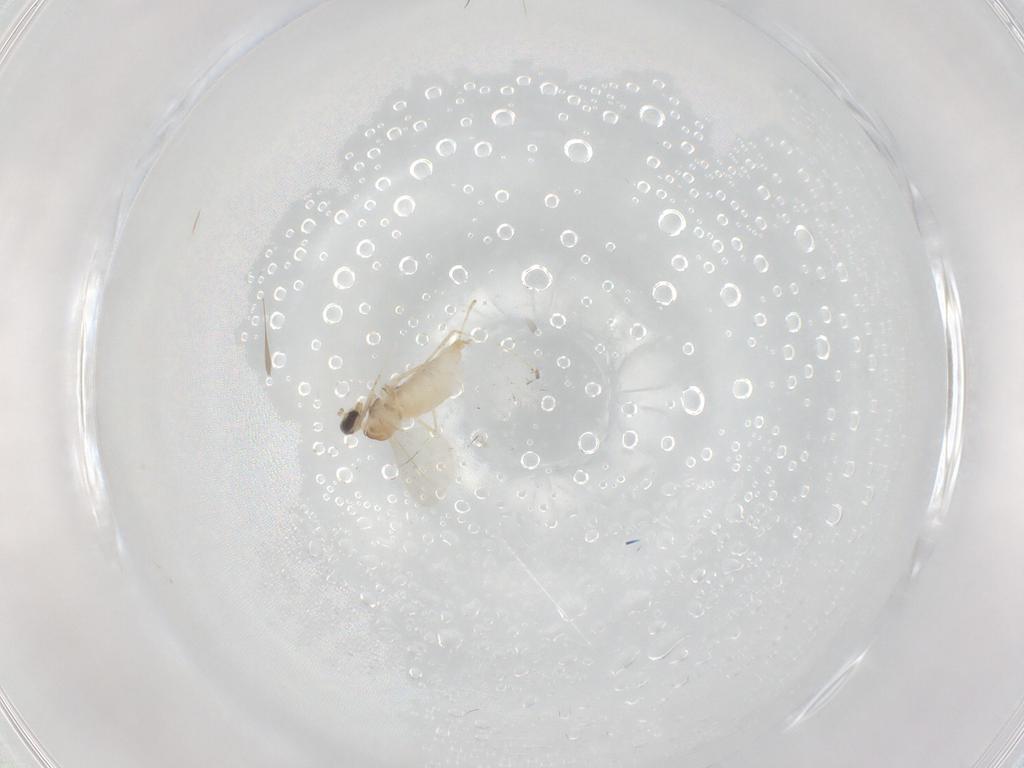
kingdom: Animalia
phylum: Arthropoda
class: Insecta
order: Diptera
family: Cecidomyiidae
